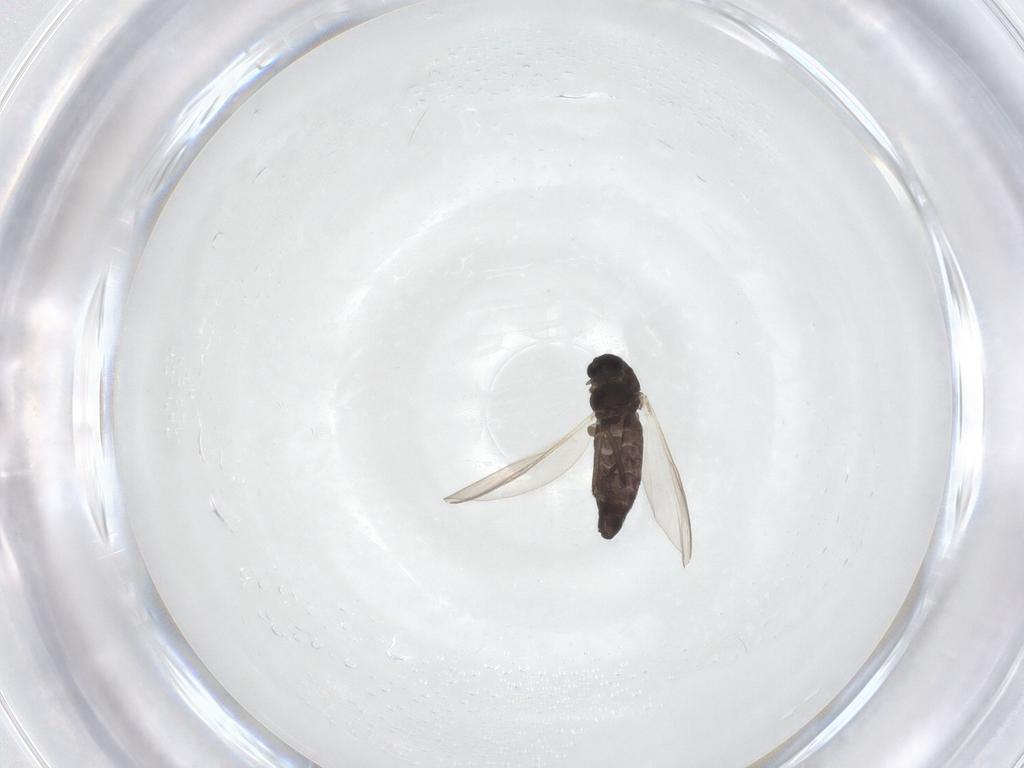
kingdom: Animalia
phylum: Arthropoda
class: Insecta
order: Diptera
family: Chironomidae
